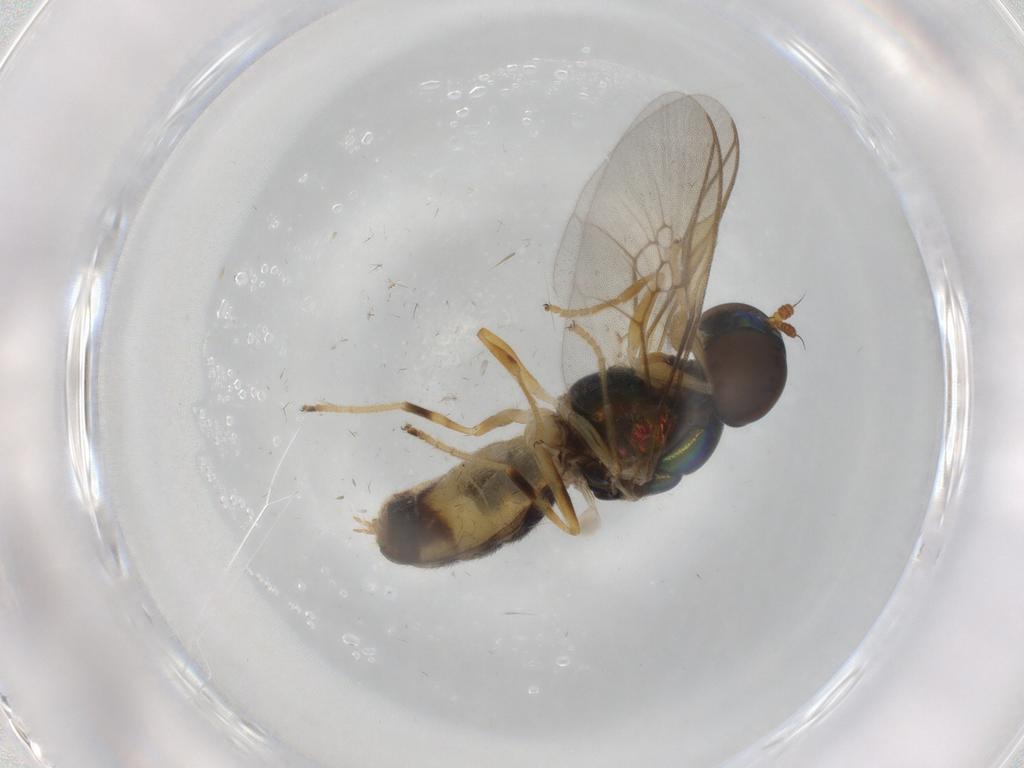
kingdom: Animalia
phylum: Arthropoda
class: Insecta
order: Diptera
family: Stratiomyidae
